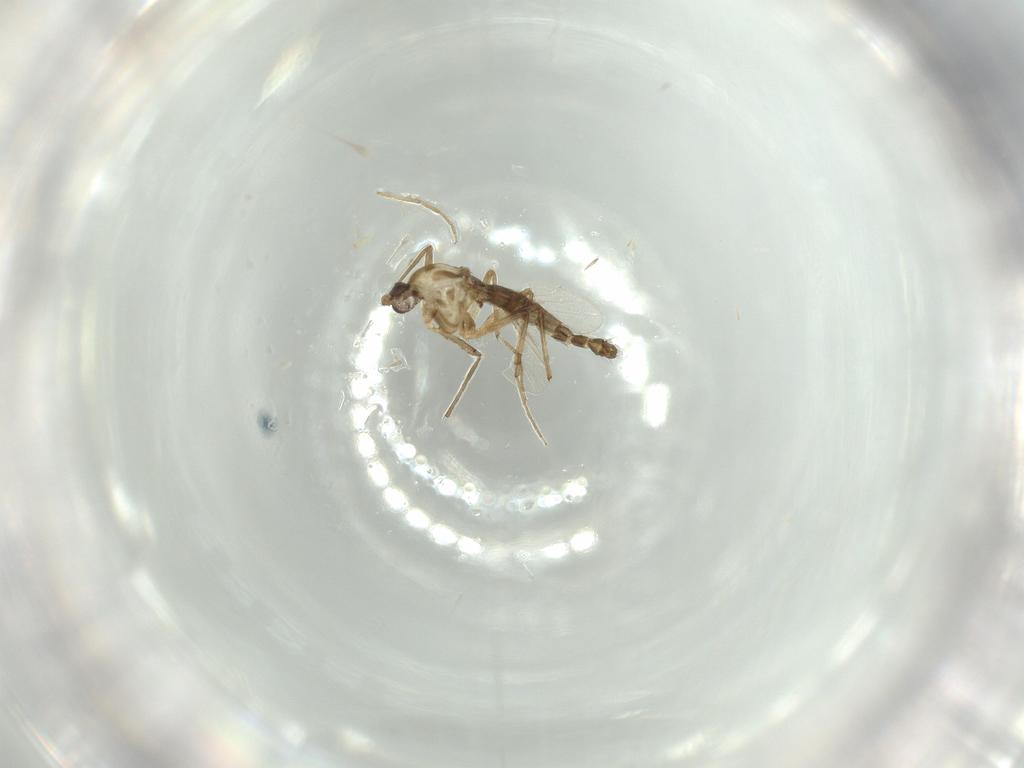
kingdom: Animalia
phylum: Arthropoda
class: Insecta
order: Diptera
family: Chironomidae
